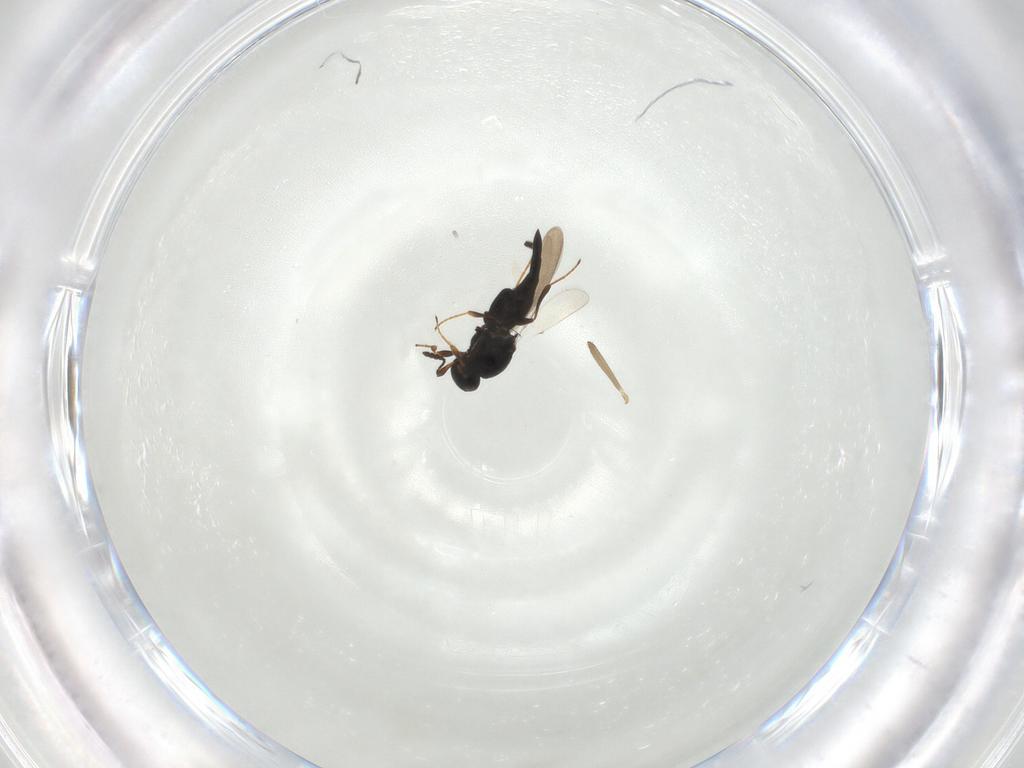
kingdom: Animalia
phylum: Arthropoda
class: Insecta
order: Hymenoptera
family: Platygastridae
